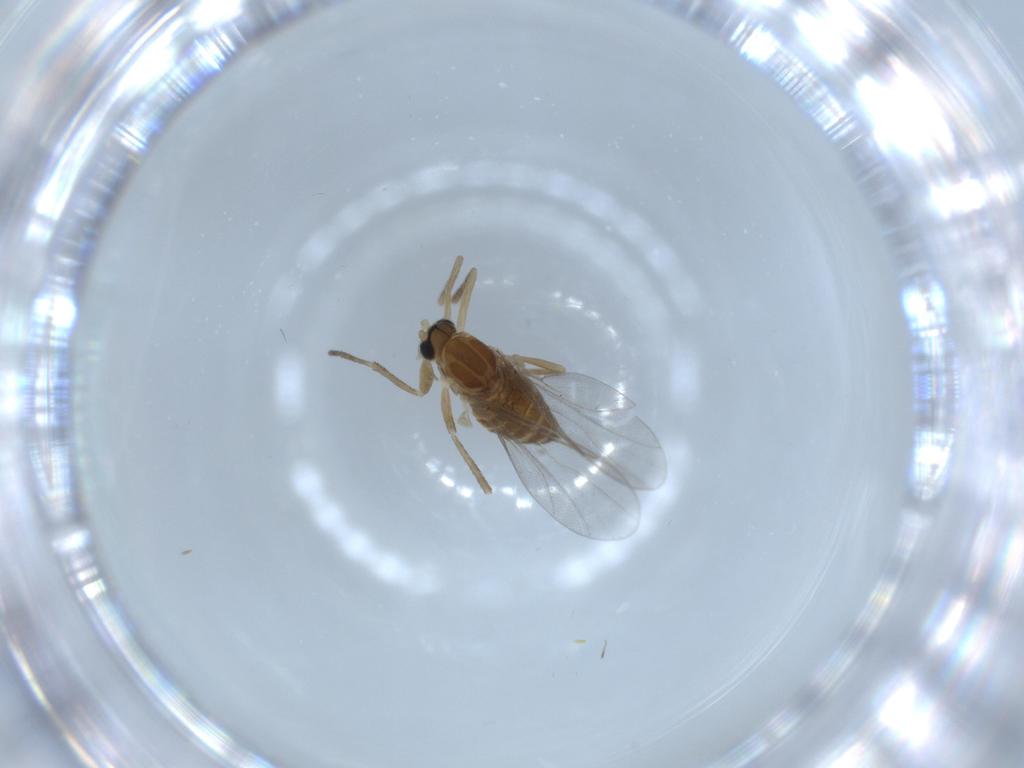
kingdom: Animalia
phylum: Arthropoda
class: Insecta
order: Diptera
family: Cecidomyiidae
